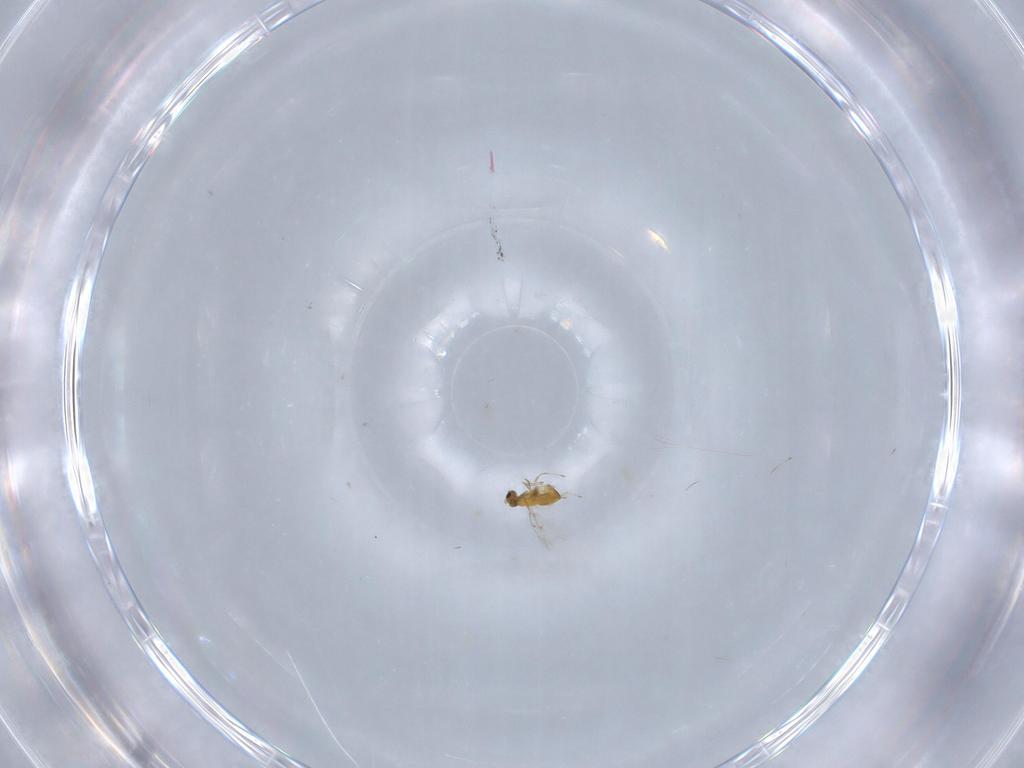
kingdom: Animalia
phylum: Arthropoda
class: Insecta
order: Hymenoptera
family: Trichogrammatidae
